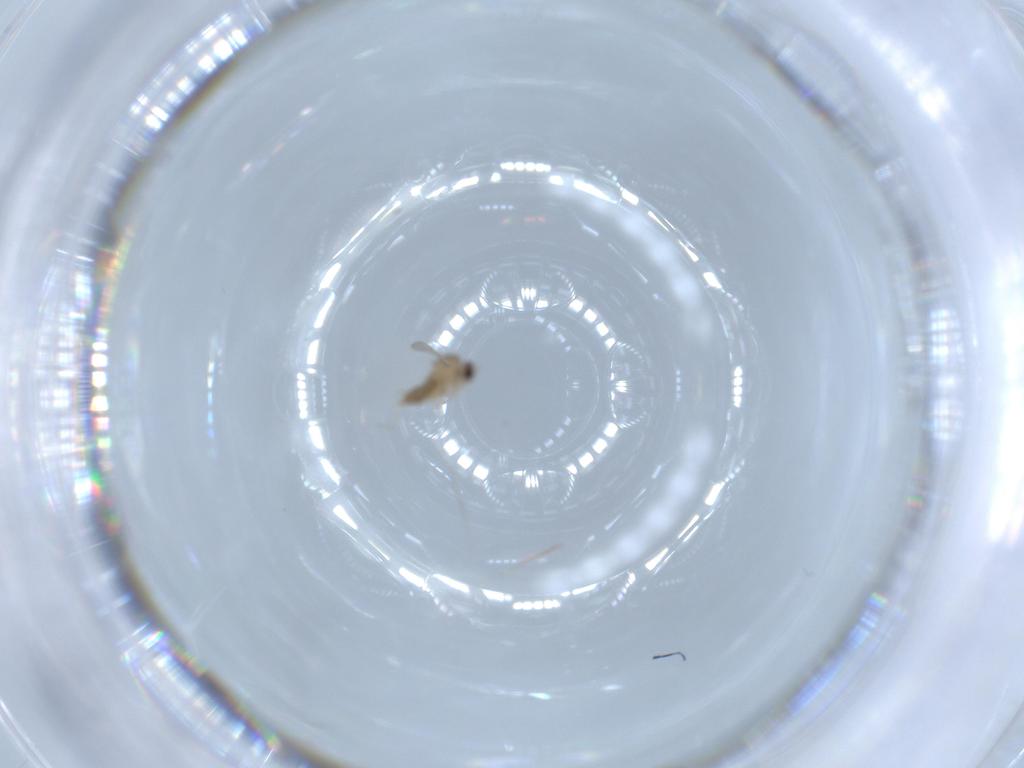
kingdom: Animalia
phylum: Arthropoda
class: Insecta
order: Diptera
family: Cecidomyiidae
